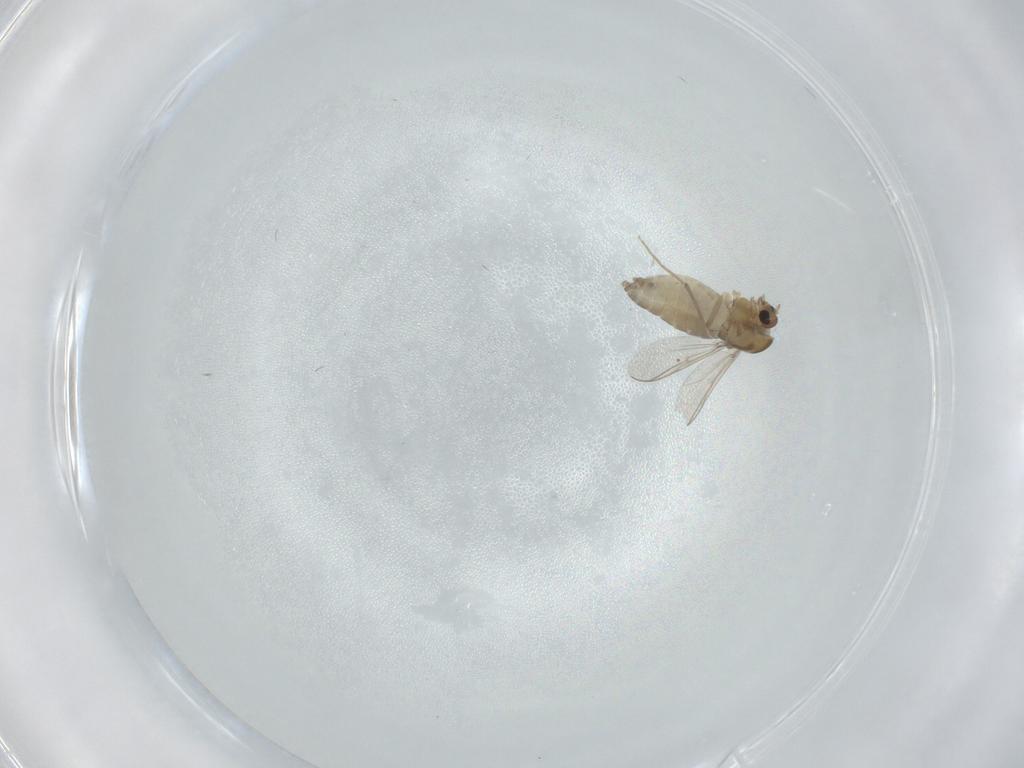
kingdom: Animalia
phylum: Arthropoda
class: Insecta
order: Diptera
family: Chironomidae
